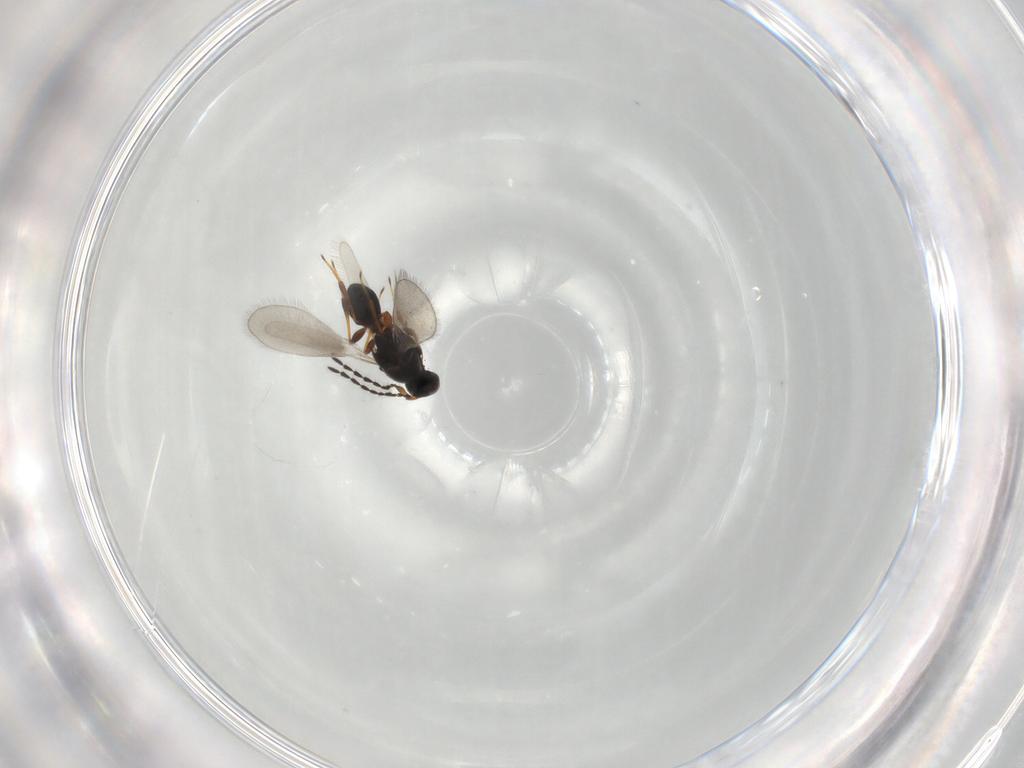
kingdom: Animalia
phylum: Arthropoda
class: Insecta
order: Hymenoptera
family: Platygastridae
